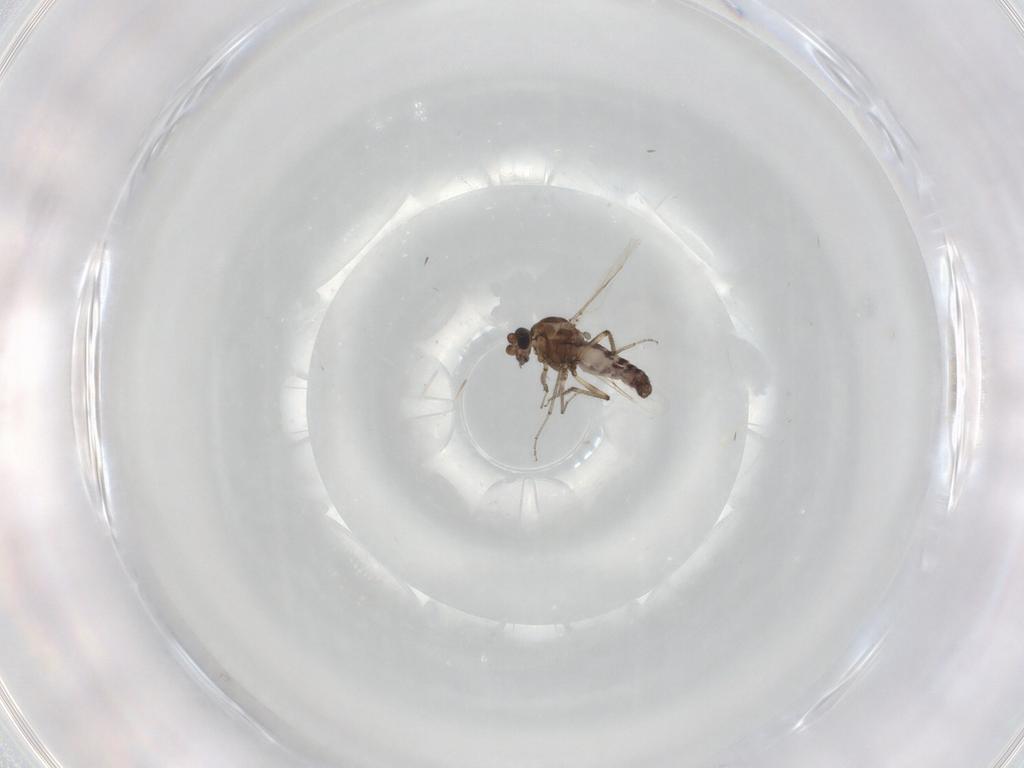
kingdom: Animalia
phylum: Arthropoda
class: Insecta
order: Diptera
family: Ceratopogonidae
